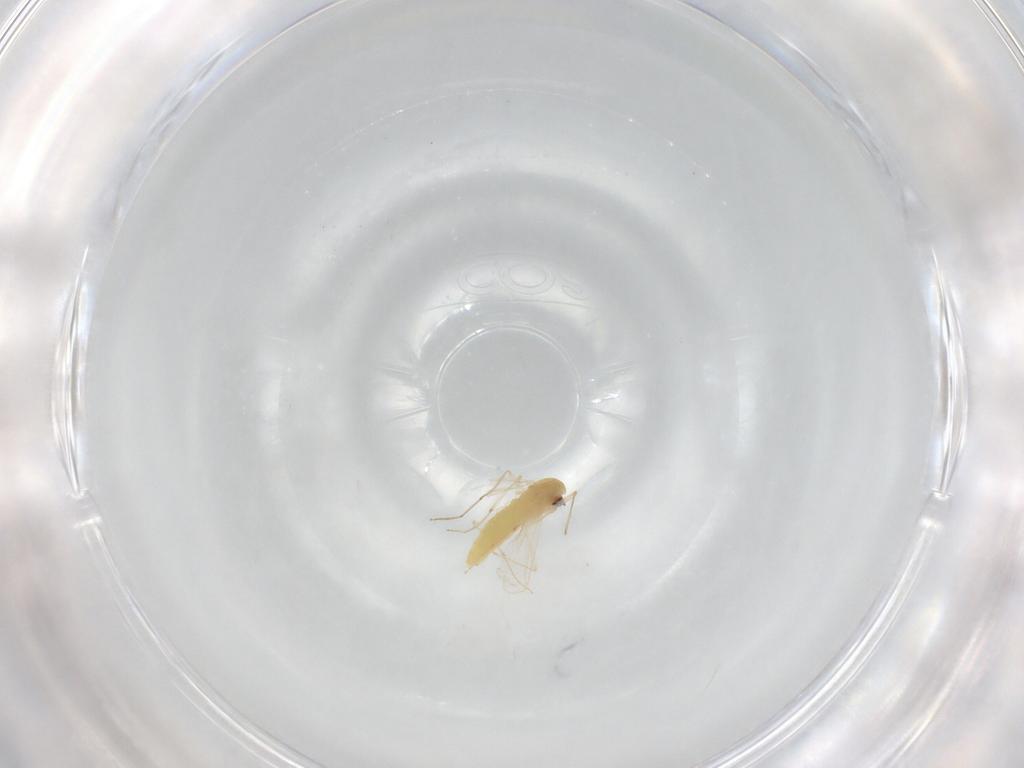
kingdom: Animalia
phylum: Arthropoda
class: Insecta
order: Diptera
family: Chironomidae
